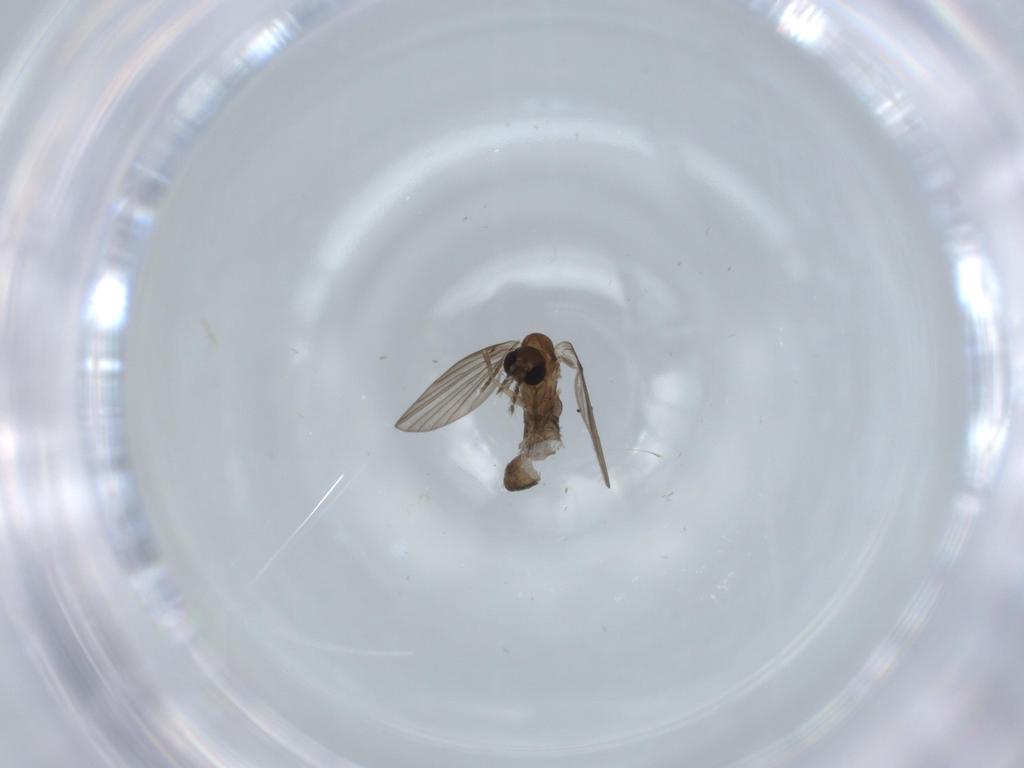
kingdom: Animalia
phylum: Arthropoda
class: Insecta
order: Diptera
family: Psychodidae
